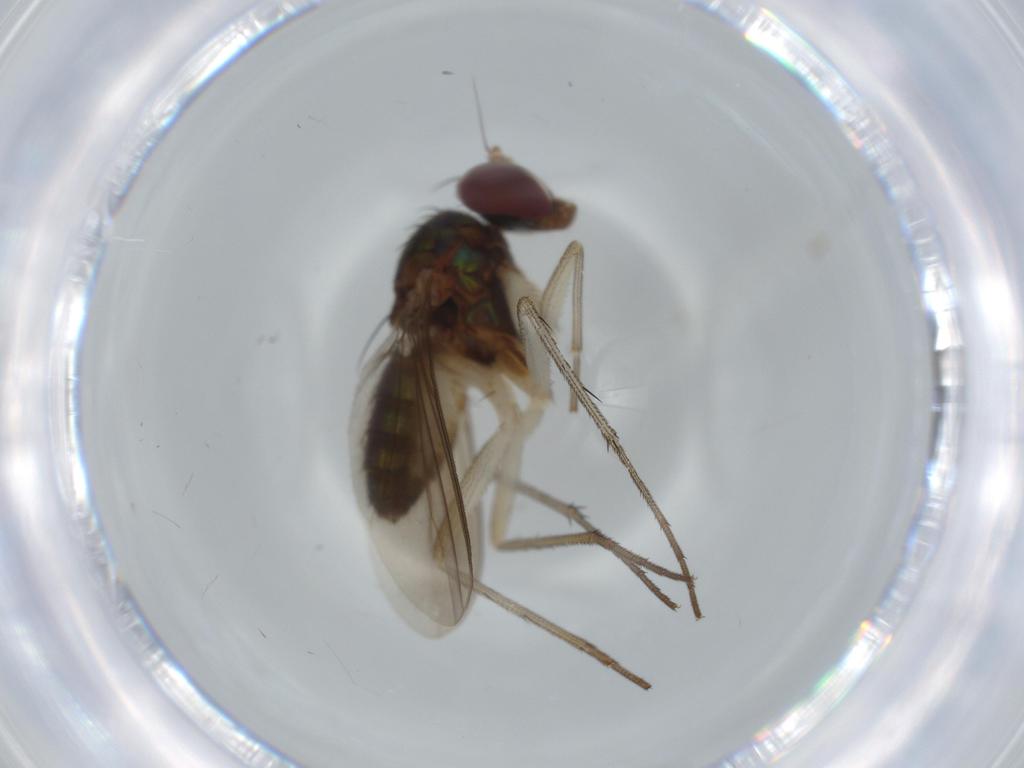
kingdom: Animalia
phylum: Arthropoda
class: Insecta
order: Diptera
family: Dolichopodidae
